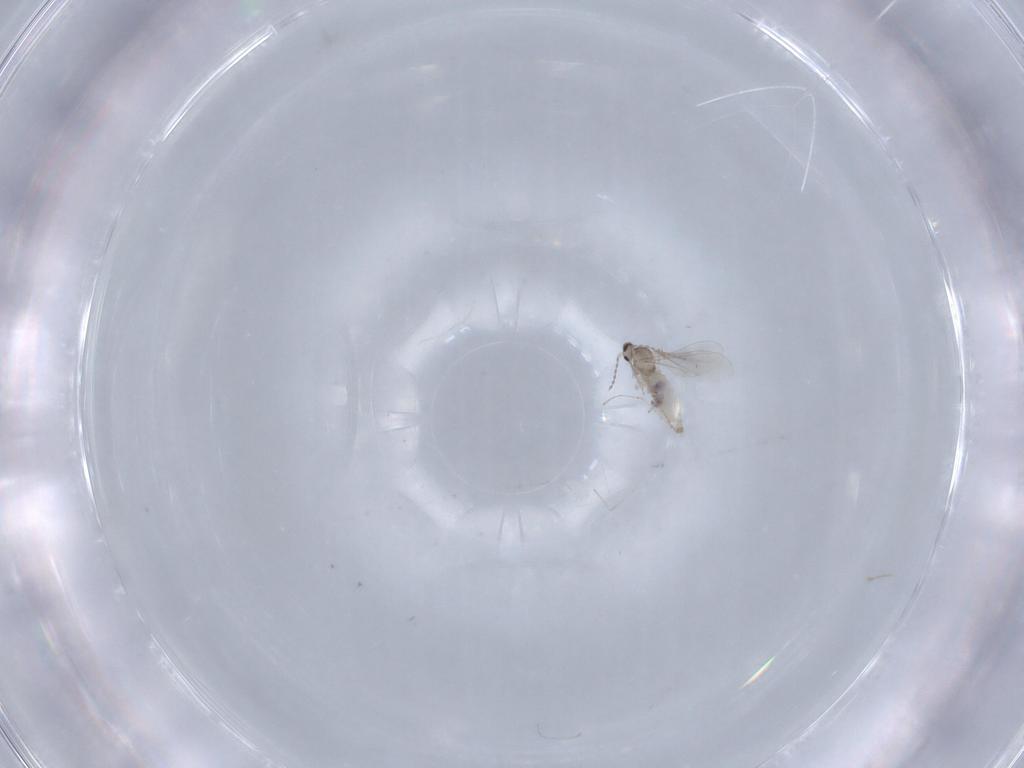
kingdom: Animalia
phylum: Arthropoda
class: Insecta
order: Diptera
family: Cecidomyiidae
